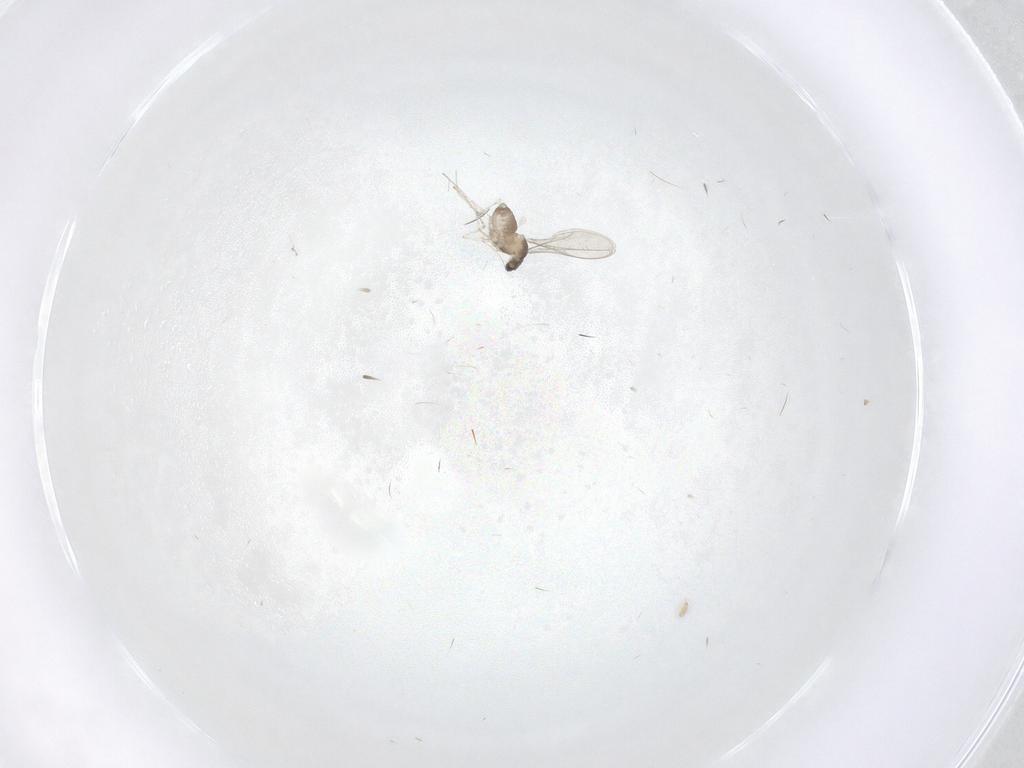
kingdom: Animalia
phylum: Arthropoda
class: Insecta
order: Diptera
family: Cecidomyiidae
